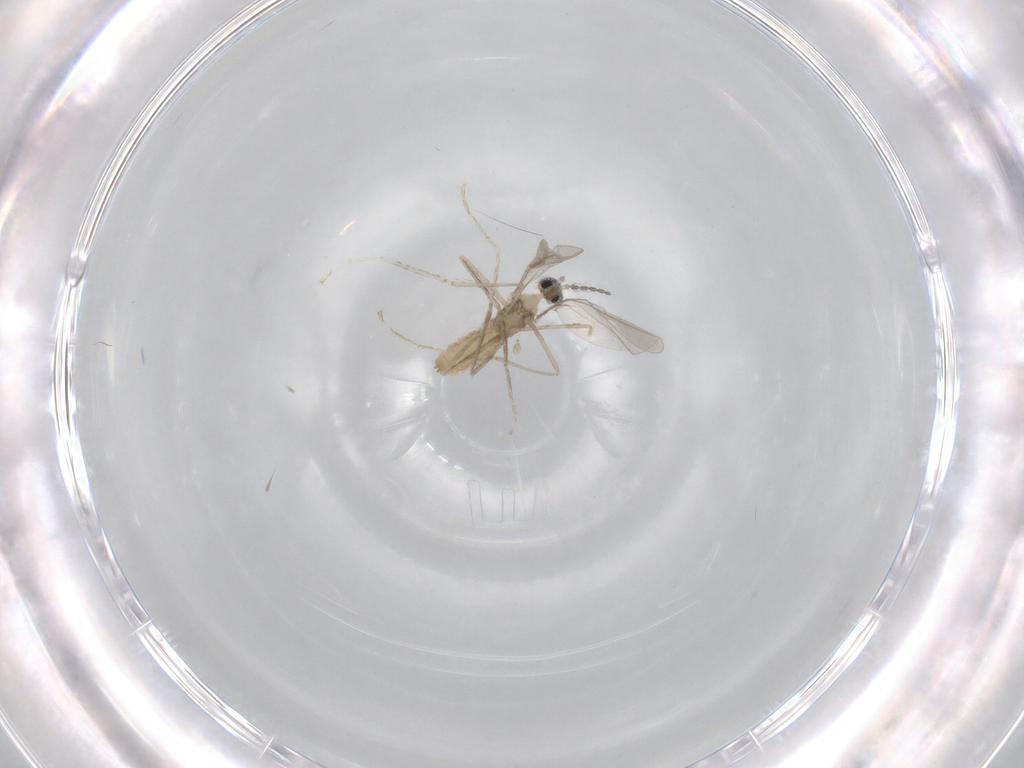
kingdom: Animalia
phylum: Arthropoda
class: Insecta
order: Diptera
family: Cecidomyiidae
